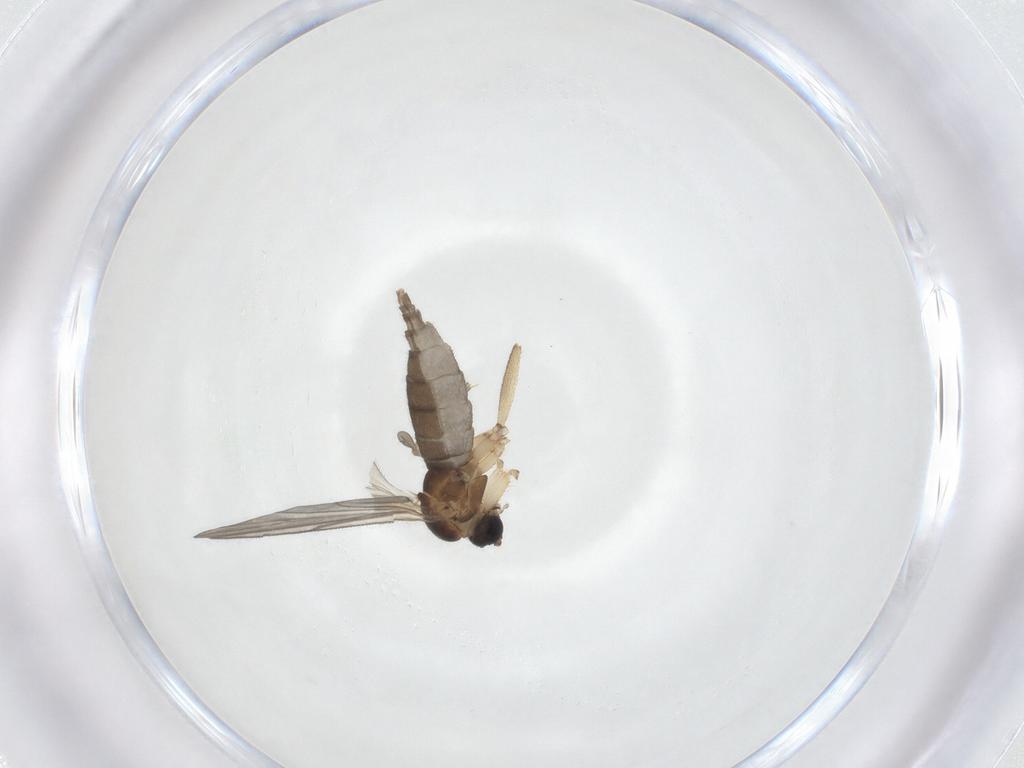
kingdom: Animalia
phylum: Arthropoda
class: Insecta
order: Diptera
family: Sciaridae
